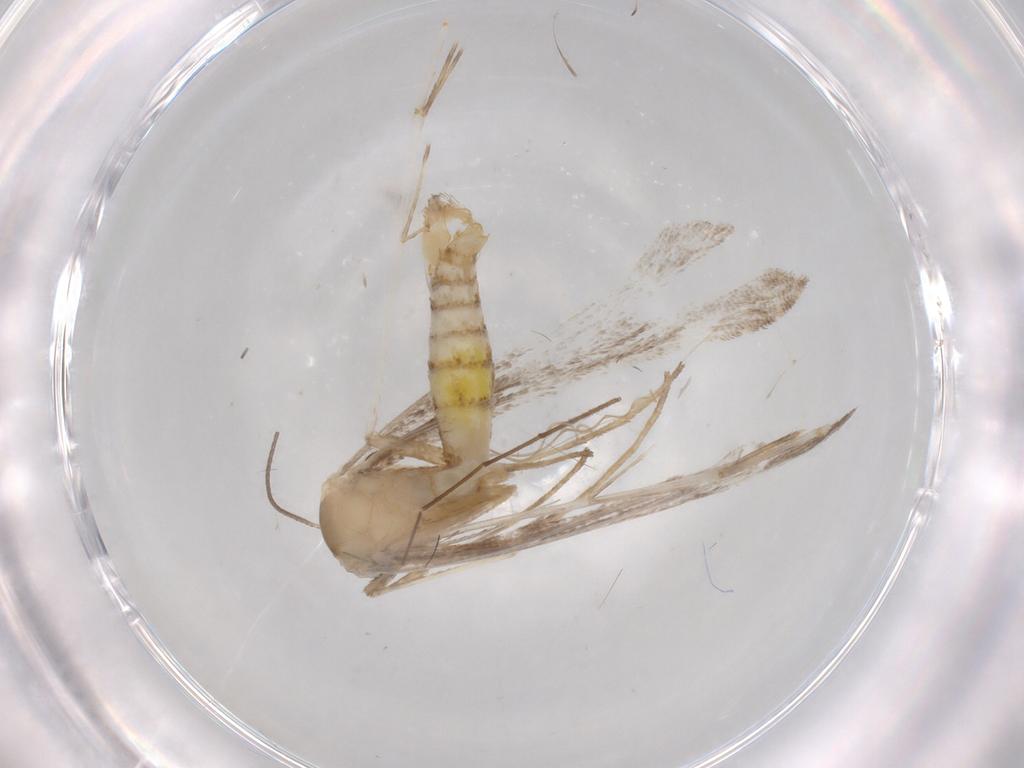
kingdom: Animalia
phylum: Arthropoda
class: Insecta
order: Lepidoptera
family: Pterophoridae
